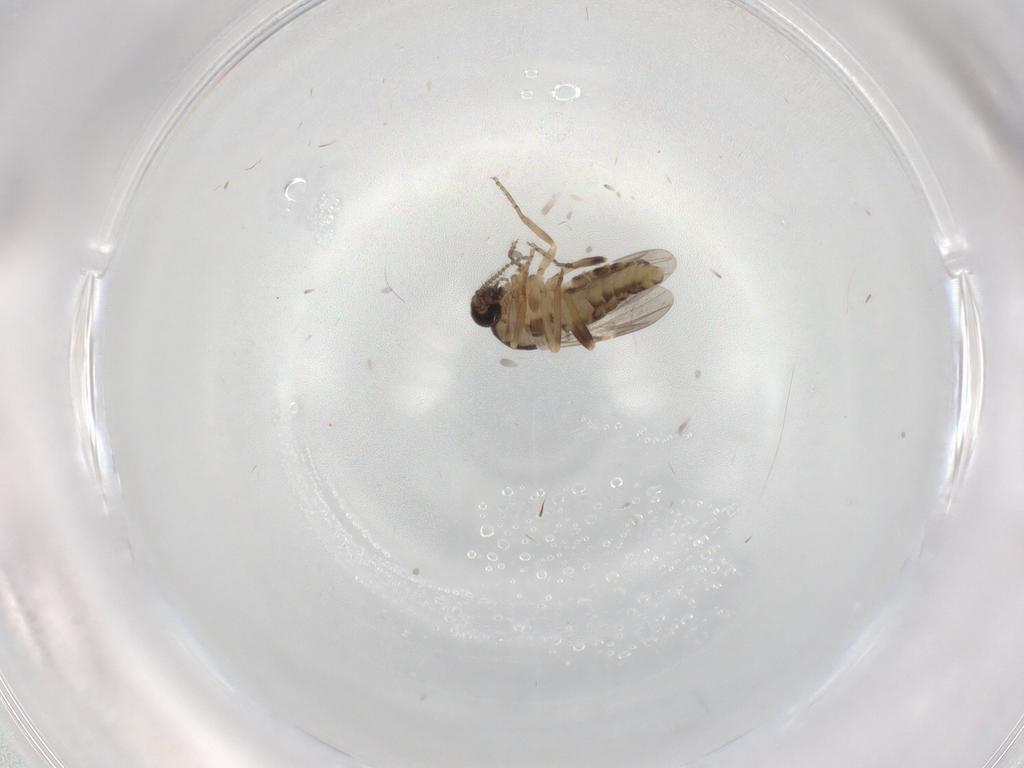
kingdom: Animalia
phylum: Arthropoda
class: Insecta
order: Diptera
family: Ceratopogonidae
